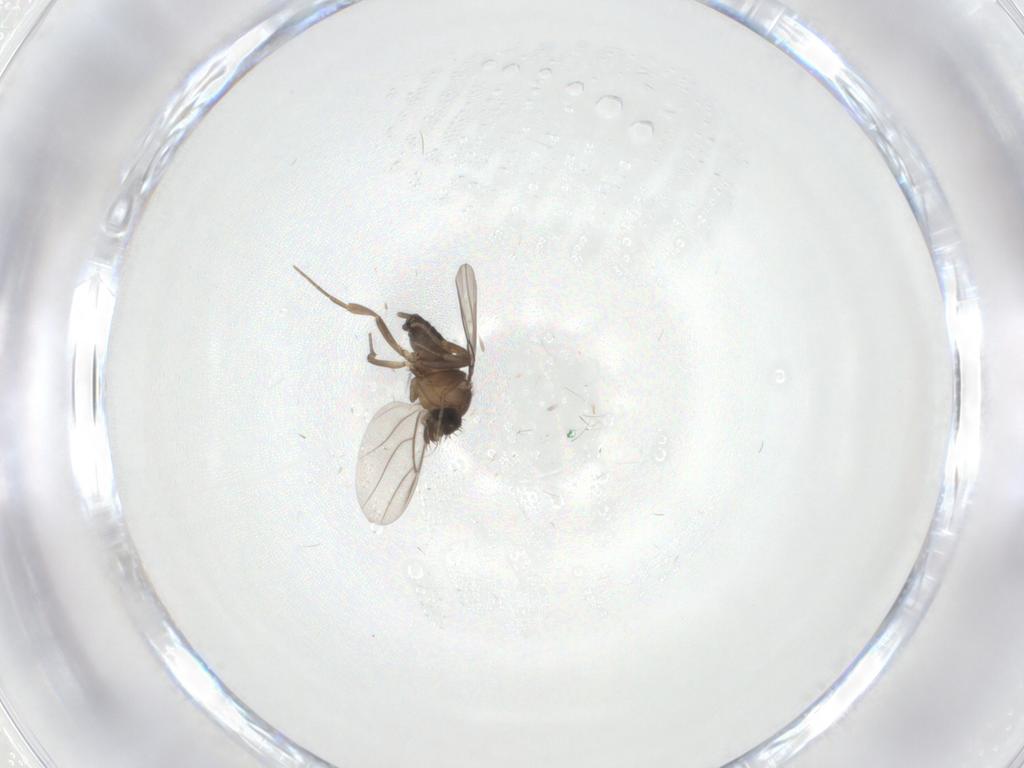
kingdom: Animalia
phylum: Arthropoda
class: Insecta
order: Diptera
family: Phoridae
